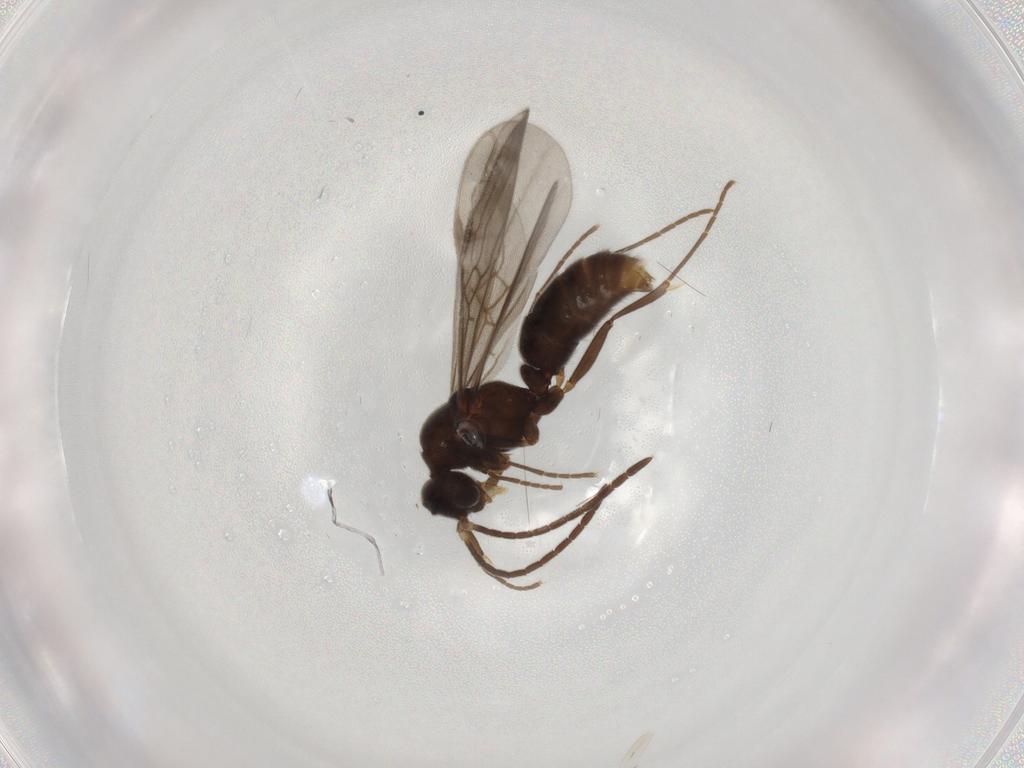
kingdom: Animalia
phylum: Arthropoda
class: Insecta
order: Hymenoptera
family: Formicidae
